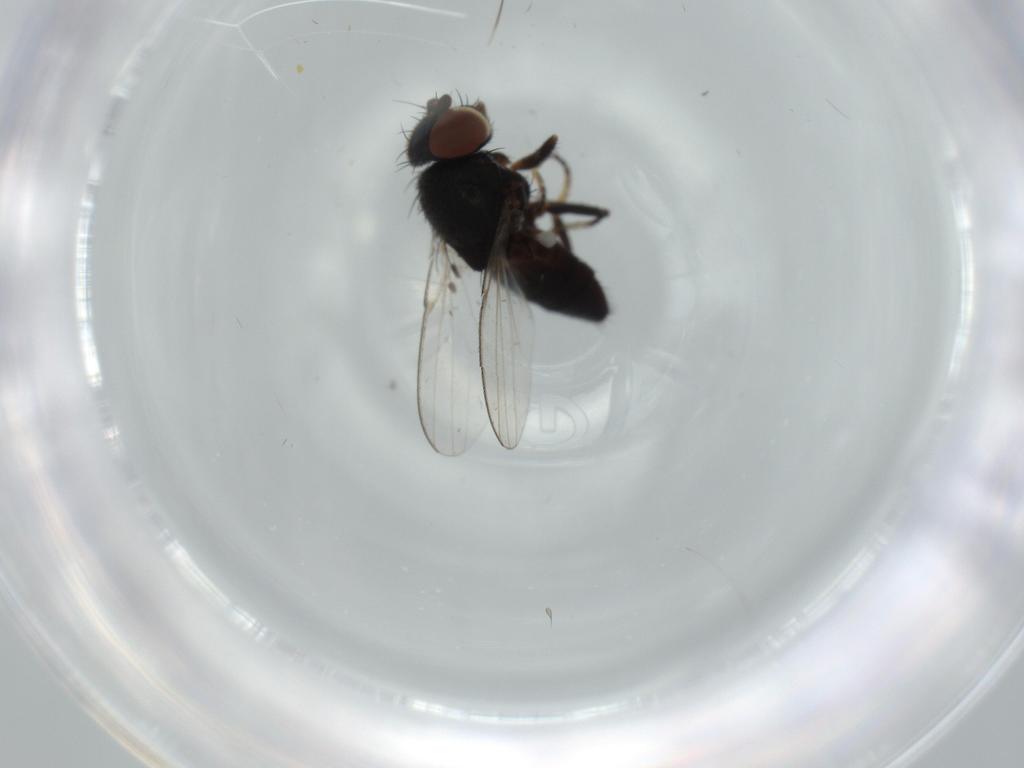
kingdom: Animalia
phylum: Arthropoda
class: Insecta
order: Diptera
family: Milichiidae
